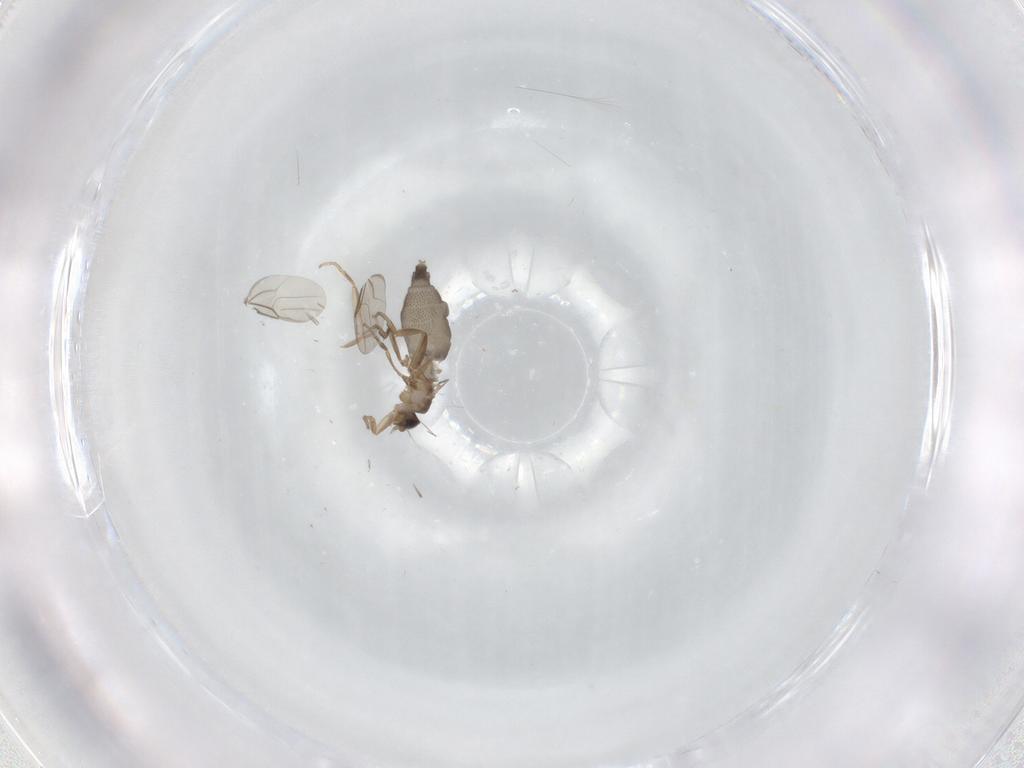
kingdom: Animalia
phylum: Arthropoda
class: Insecta
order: Diptera
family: Phoridae
